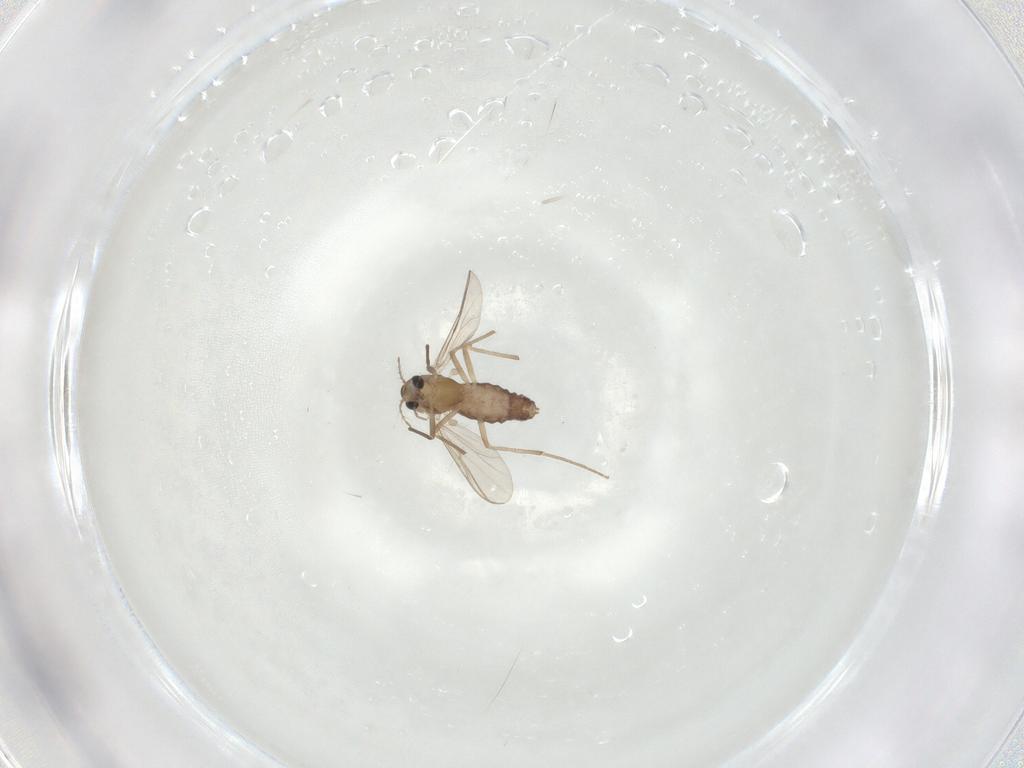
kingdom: Animalia
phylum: Arthropoda
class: Insecta
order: Diptera
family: Chironomidae
